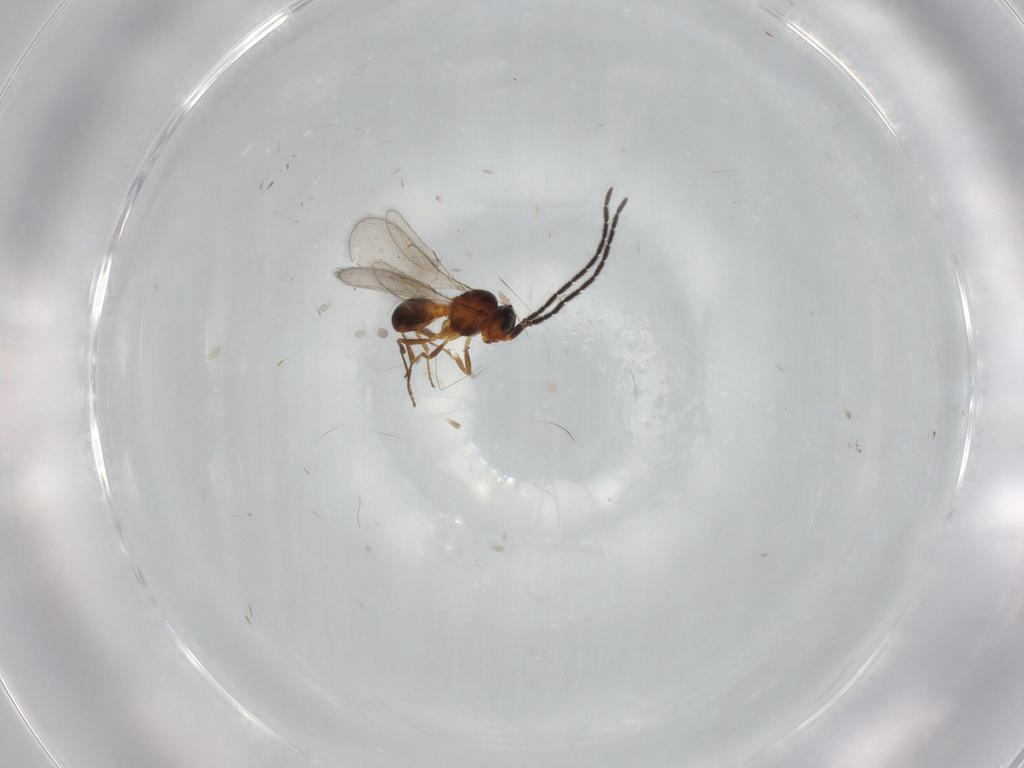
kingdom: Animalia
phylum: Arthropoda
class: Insecta
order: Hymenoptera
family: Scelionidae
